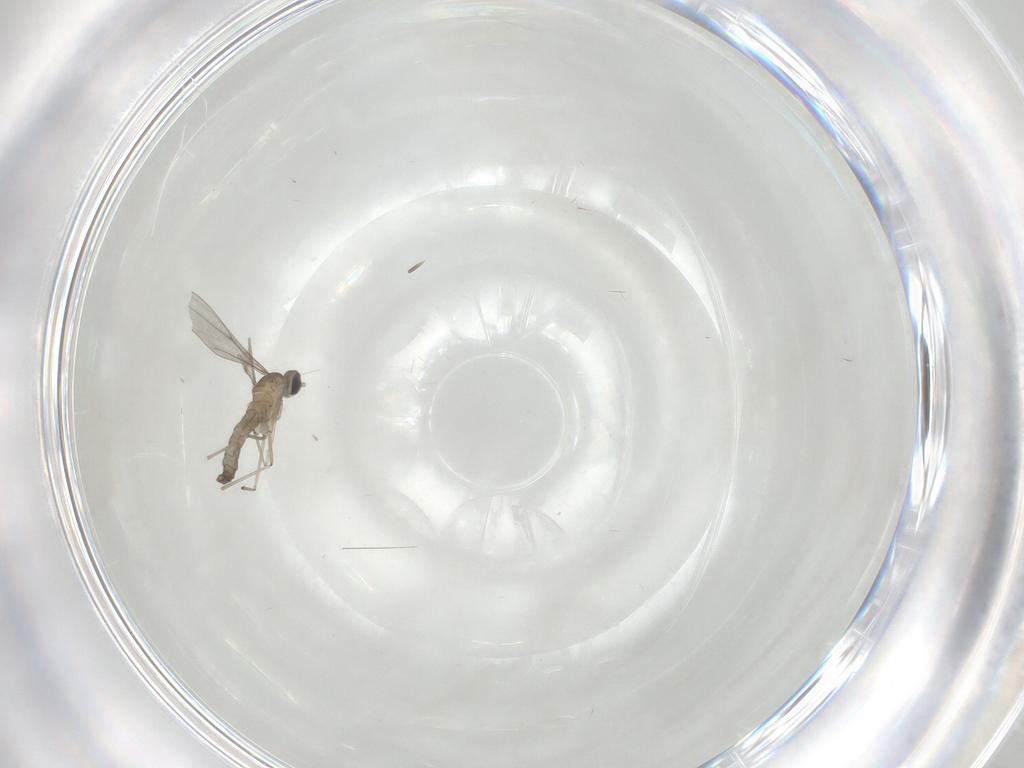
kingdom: Animalia
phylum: Arthropoda
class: Insecta
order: Diptera
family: Cecidomyiidae
